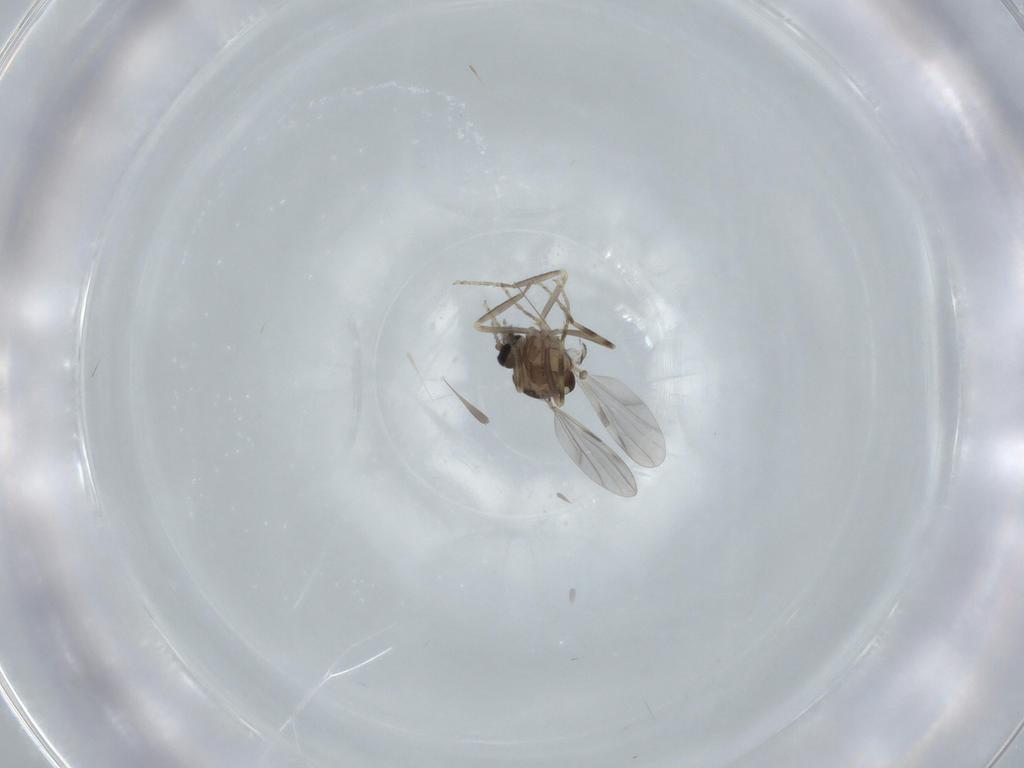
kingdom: Animalia
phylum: Arthropoda
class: Insecta
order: Diptera
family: Ceratopogonidae
